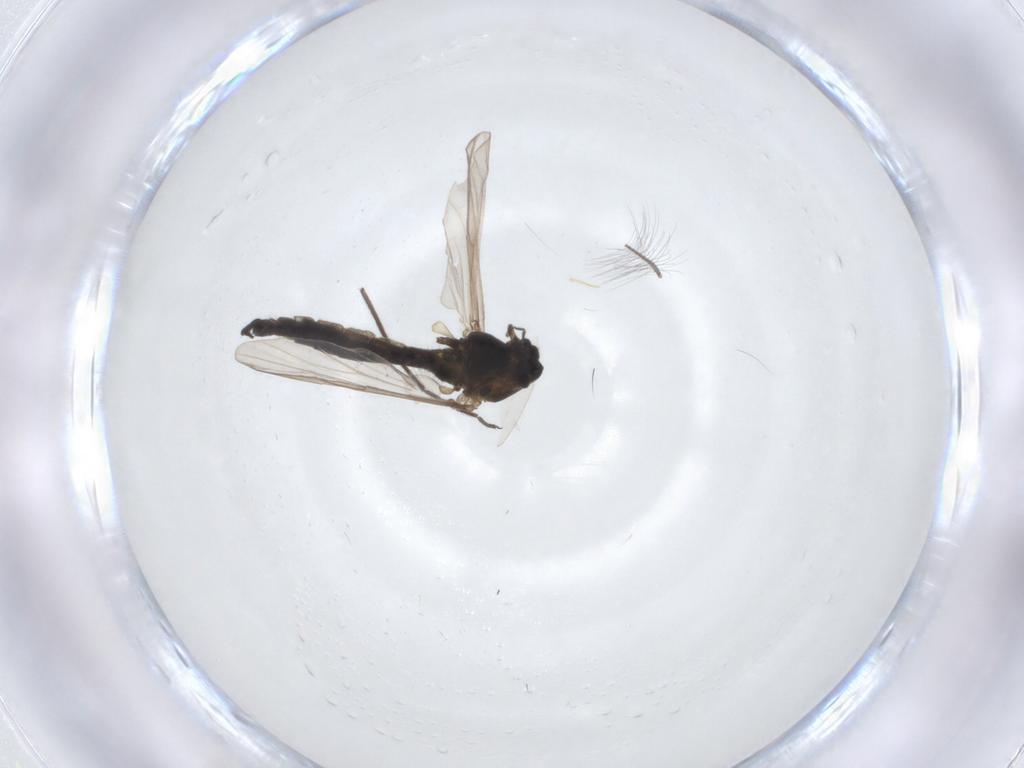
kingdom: Animalia
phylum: Arthropoda
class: Insecta
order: Diptera
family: Chironomidae
